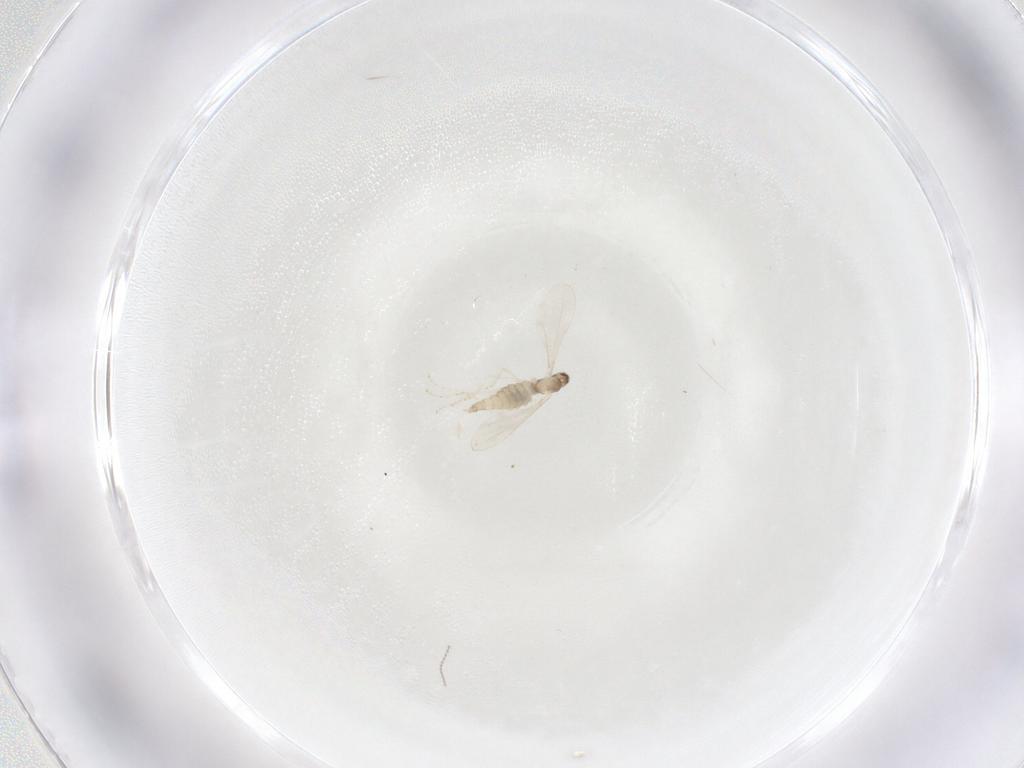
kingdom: Animalia
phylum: Arthropoda
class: Insecta
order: Diptera
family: Cecidomyiidae
